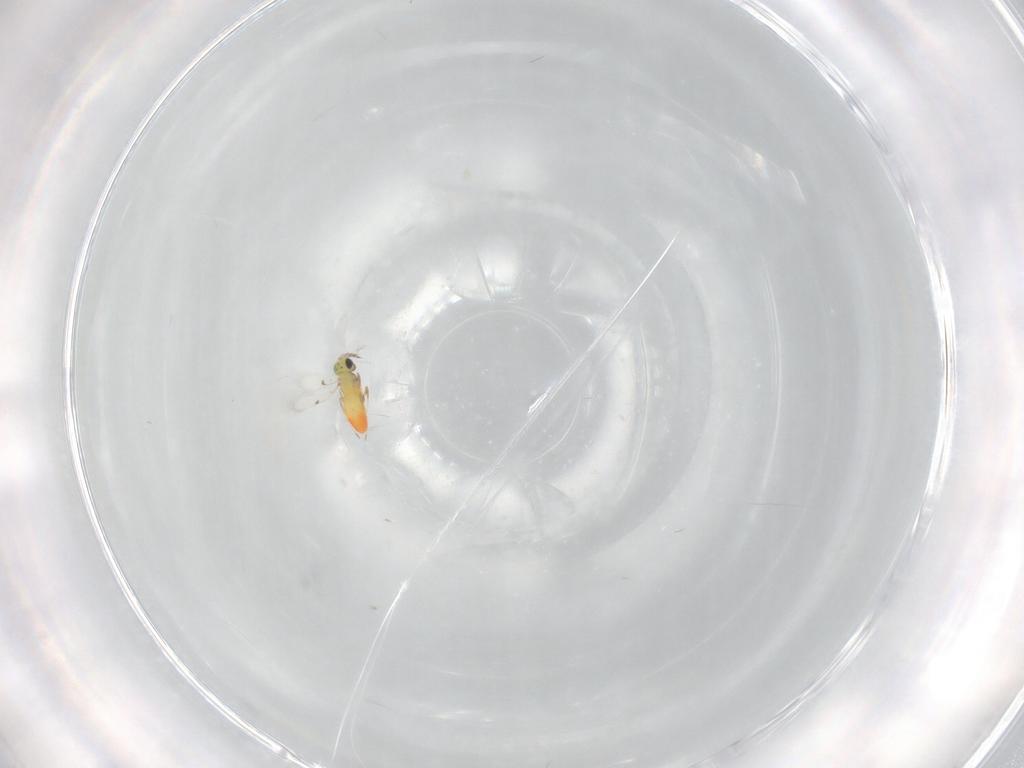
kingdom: Animalia
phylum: Arthropoda
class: Insecta
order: Hymenoptera
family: Trichogrammatidae
